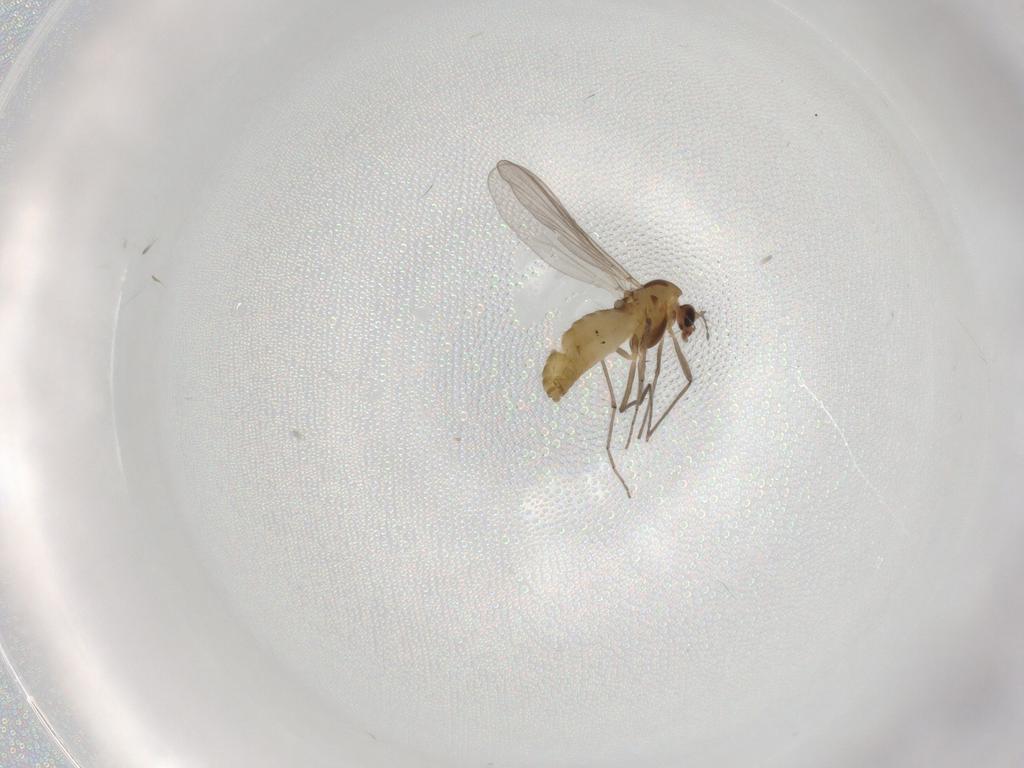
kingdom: Animalia
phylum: Arthropoda
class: Insecta
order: Diptera
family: Chironomidae
